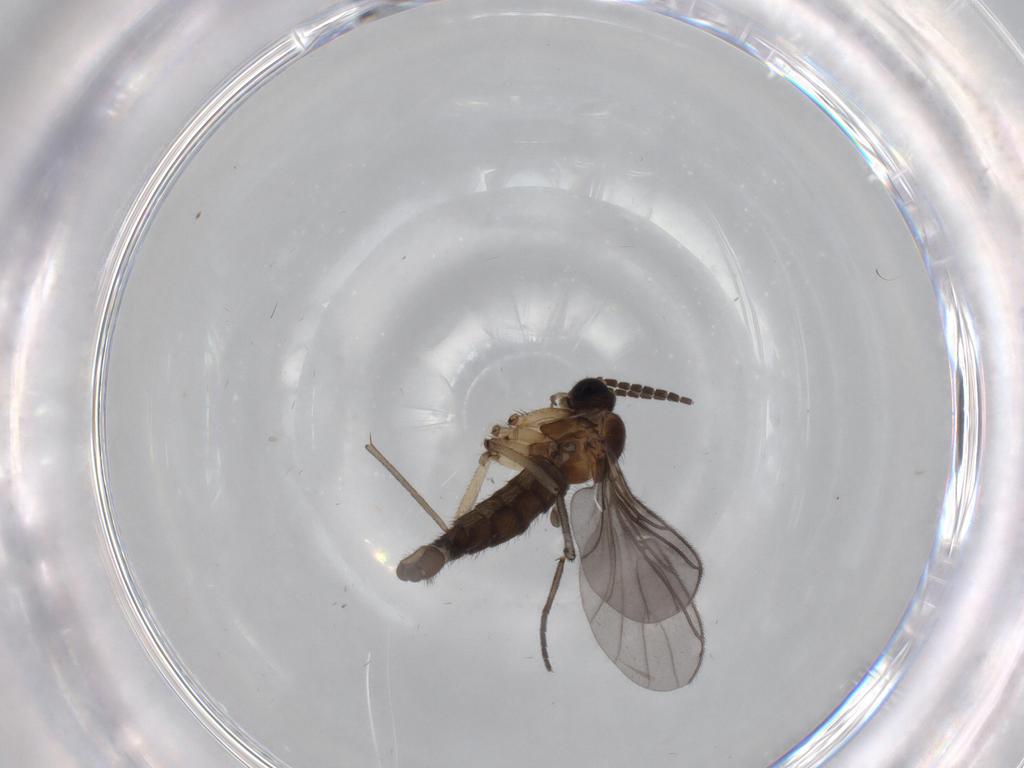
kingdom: Animalia
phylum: Arthropoda
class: Insecta
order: Diptera
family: Sciaridae
